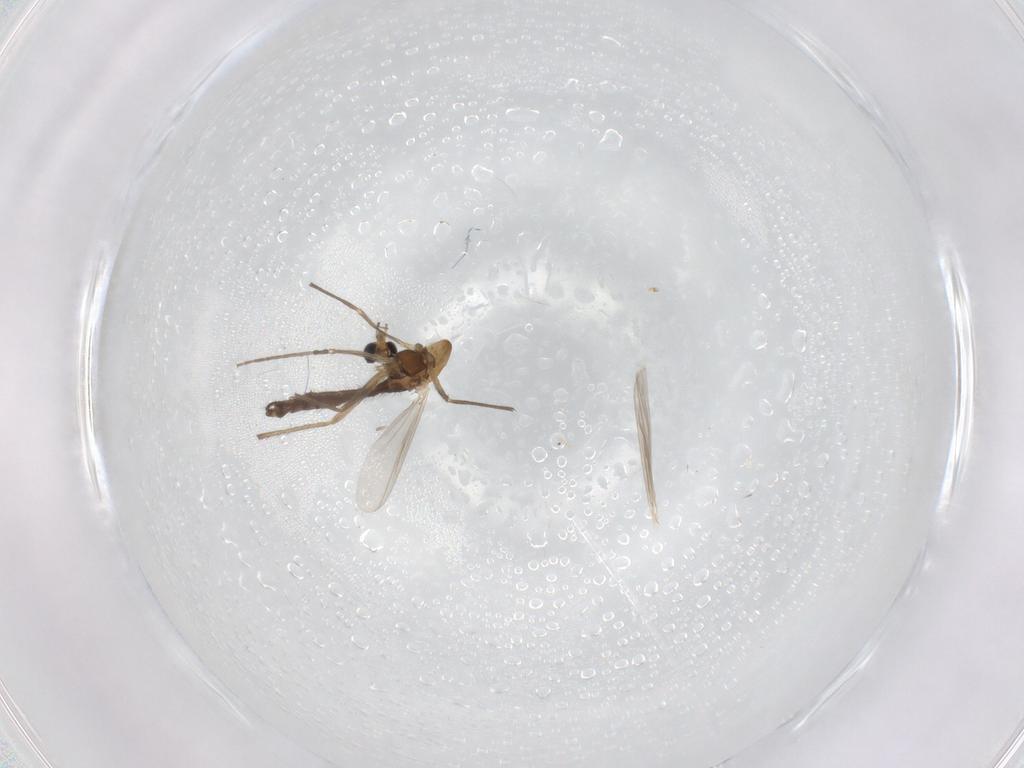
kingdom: Animalia
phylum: Arthropoda
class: Insecta
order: Diptera
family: Chironomidae
